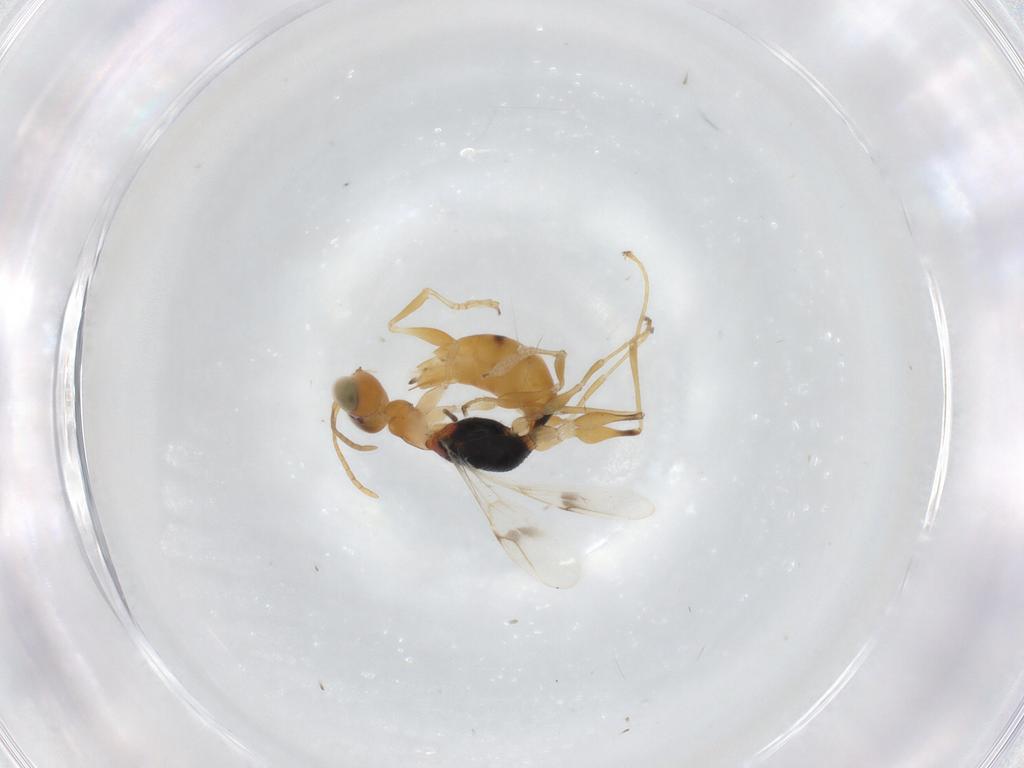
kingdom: Animalia
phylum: Arthropoda
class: Insecta
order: Hymenoptera
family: Dryinidae
